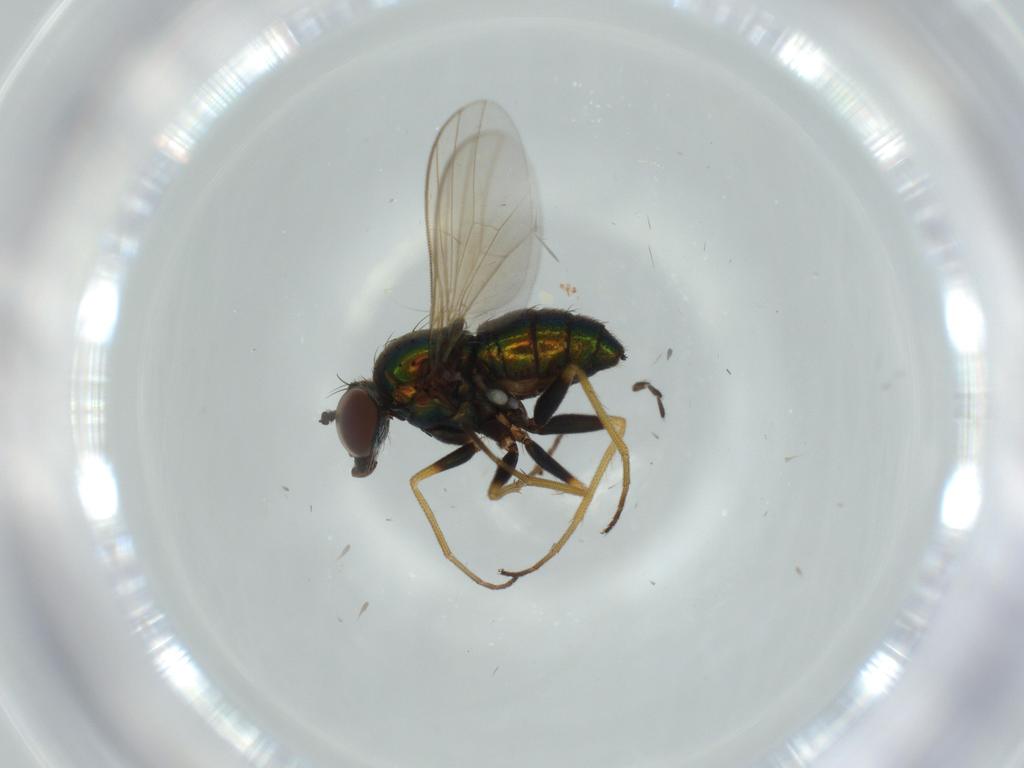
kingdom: Animalia
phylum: Arthropoda
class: Insecta
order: Diptera
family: Dolichopodidae
